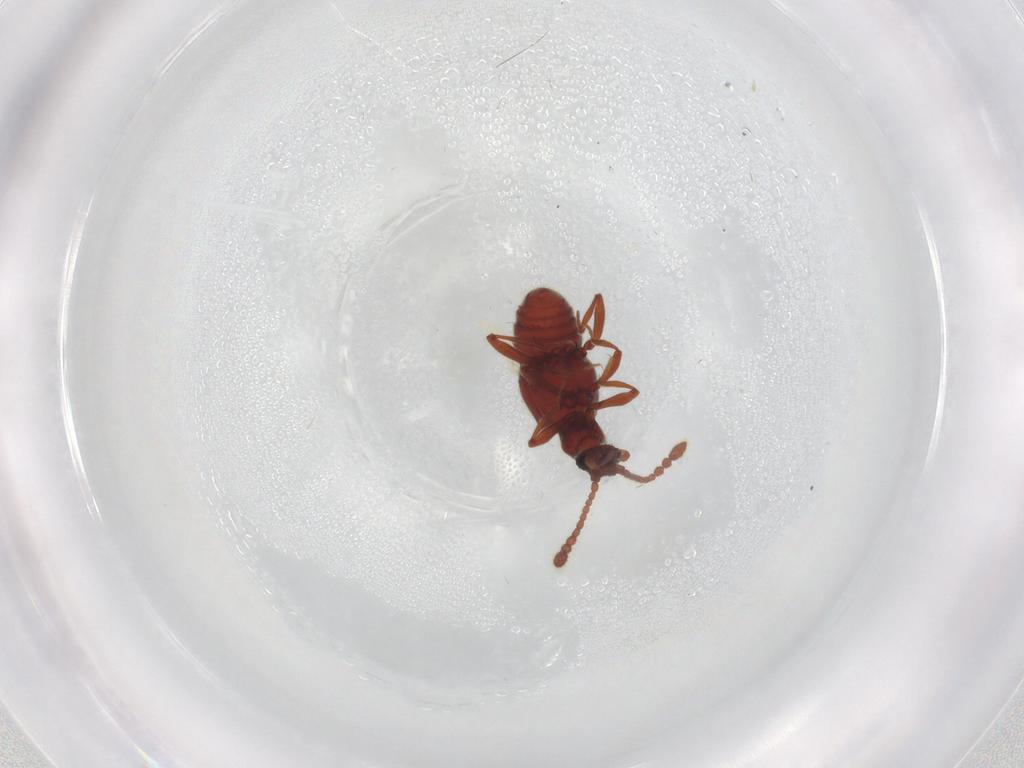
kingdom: Animalia
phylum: Arthropoda
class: Insecta
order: Coleoptera
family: Staphylinidae
